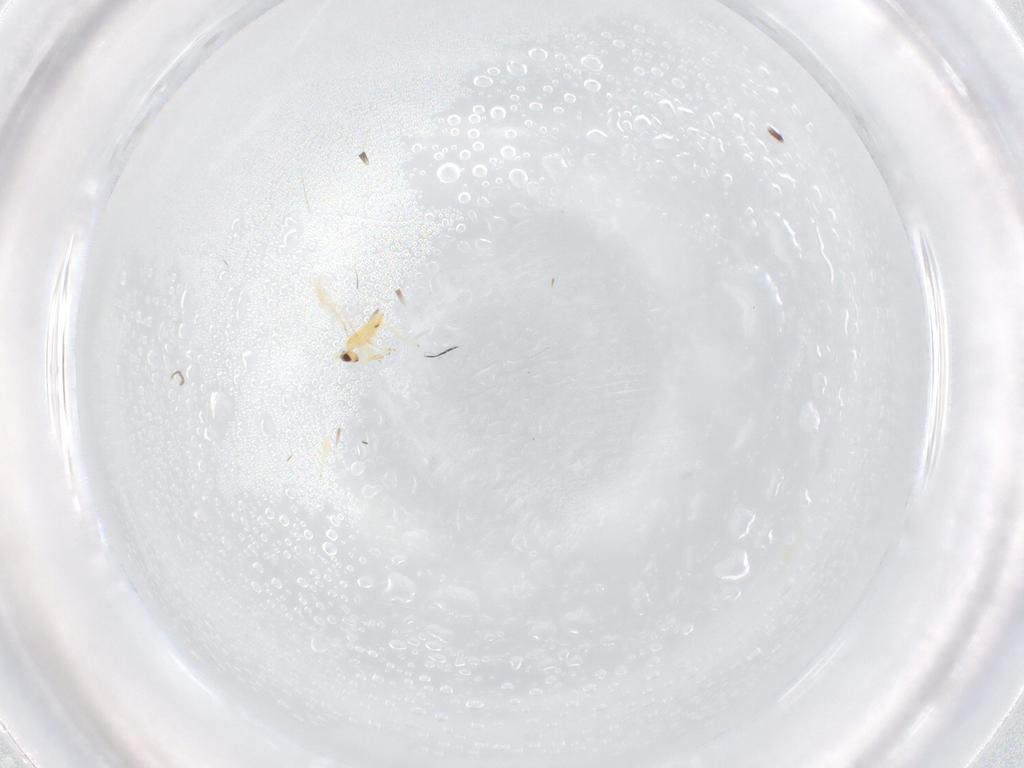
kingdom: Animalia
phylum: Arthropoda
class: Insecta
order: Hymenoptera
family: Mymaridae
